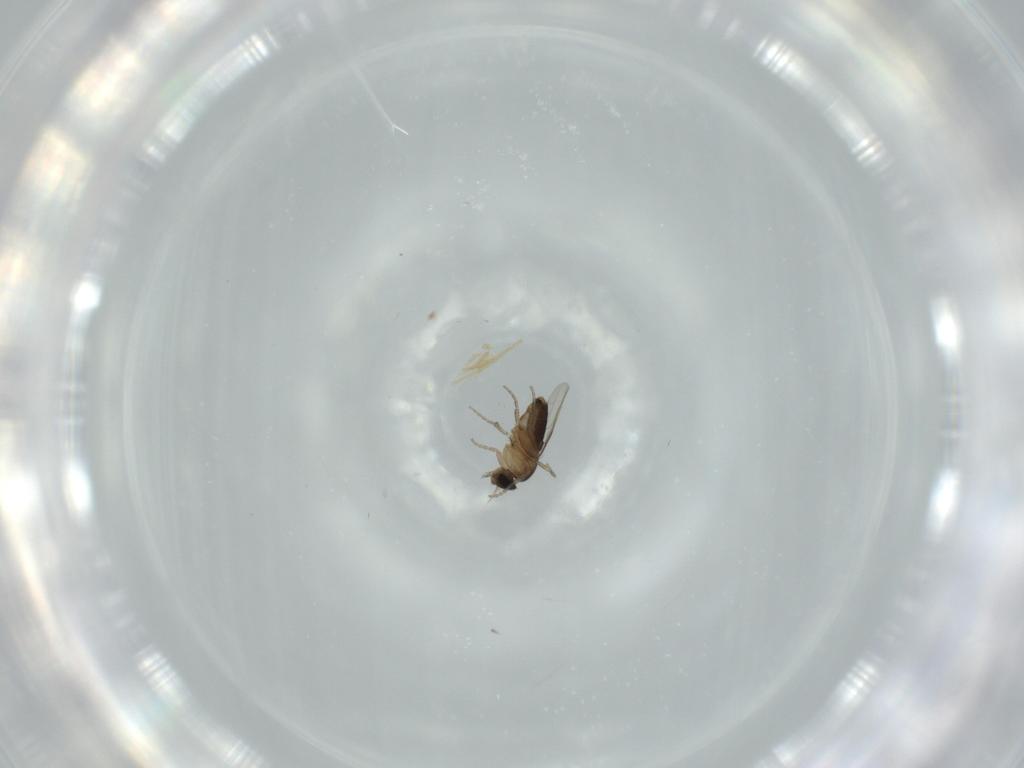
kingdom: Animalia
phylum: Arthropoda
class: Insecta
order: Diptera
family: Phoridae
